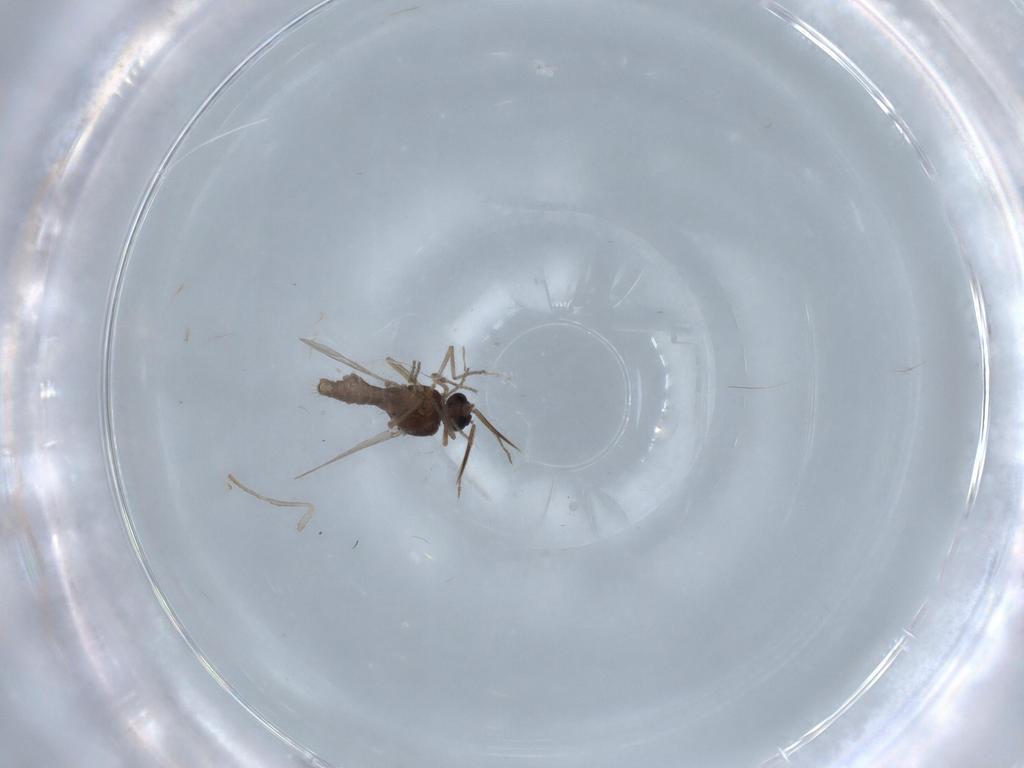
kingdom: Animalia
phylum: Arthropoda
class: Insecta
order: Diptera
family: Ceratopogonidae
